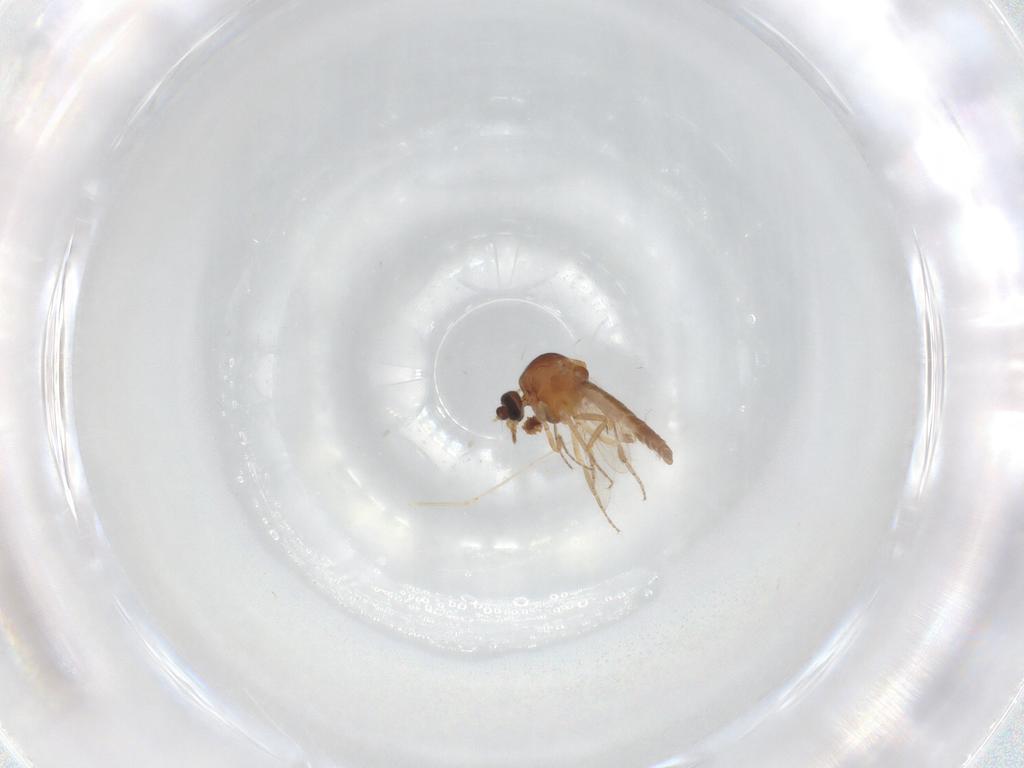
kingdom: Animalia
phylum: Arthropoda
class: Insecta
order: Diptera
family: Ceratopogonidae
